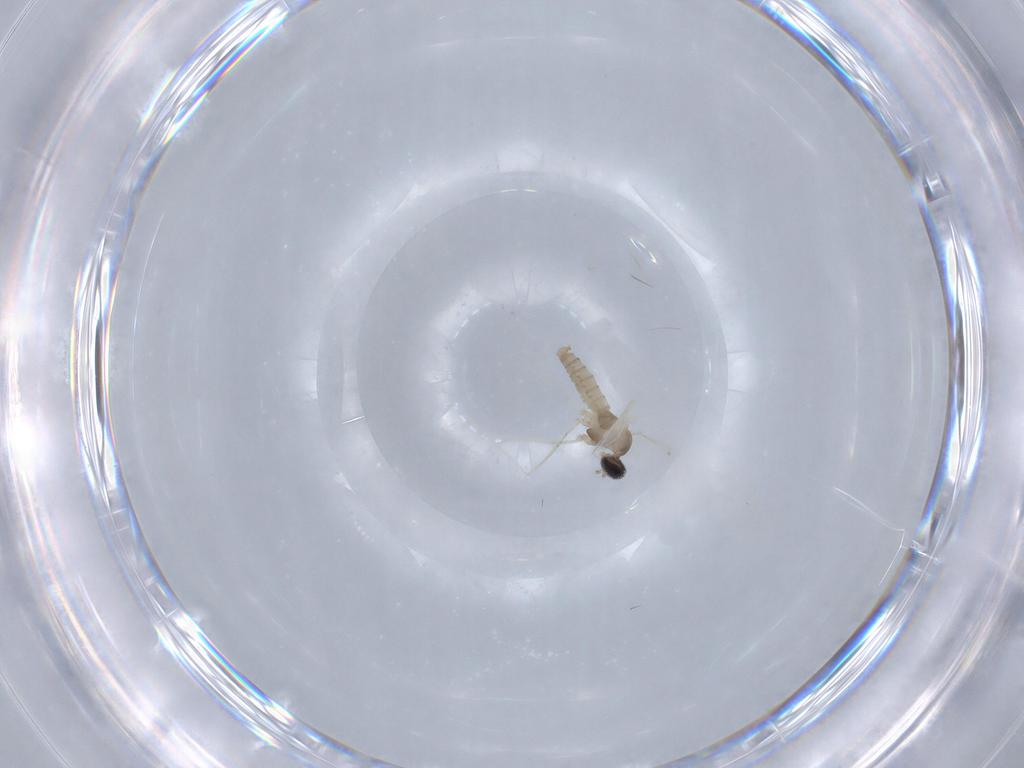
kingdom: Animalia
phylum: Arthropoda
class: Insecta
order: Diptera
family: Cecidomyiidae
